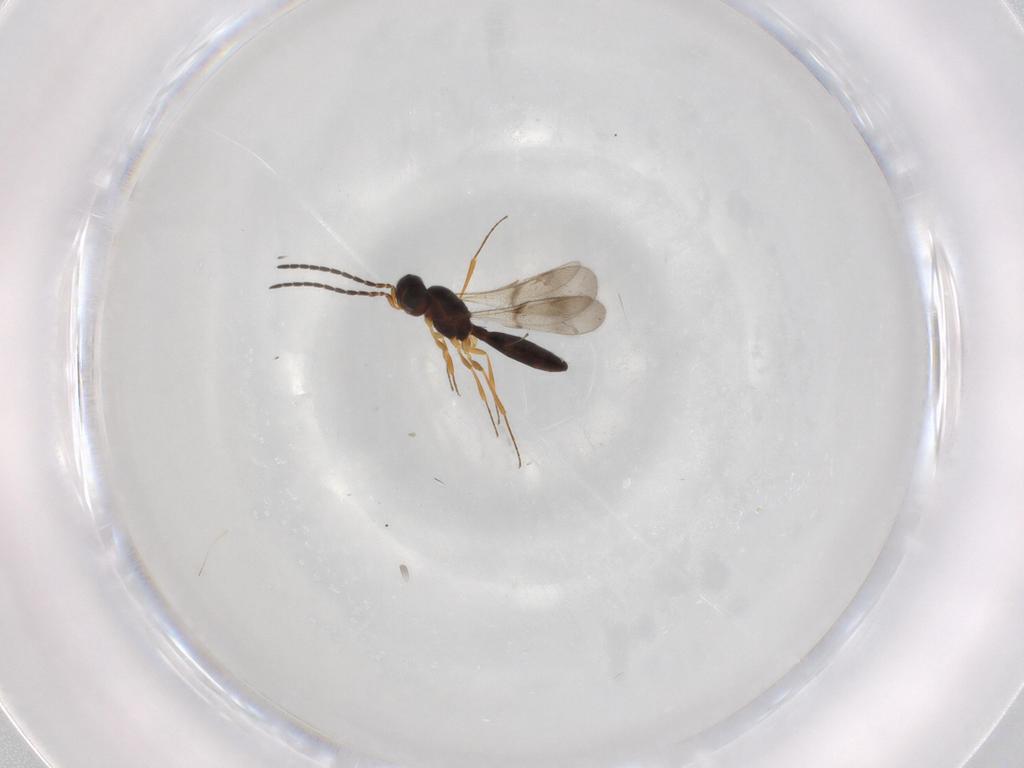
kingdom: Animalia
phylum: Arthropoda
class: Insecta
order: Hymenoptera
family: Scelionidae
